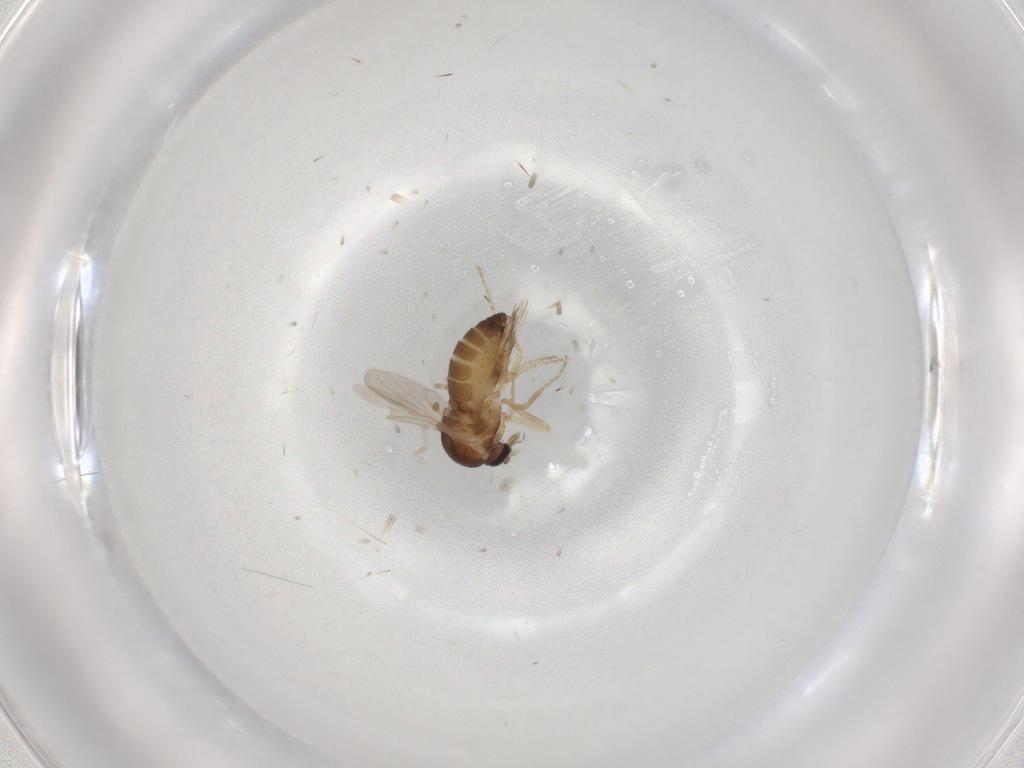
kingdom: Animalia
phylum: Arthropoda
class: Insecta
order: Diptera
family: Ceratopogonidae
